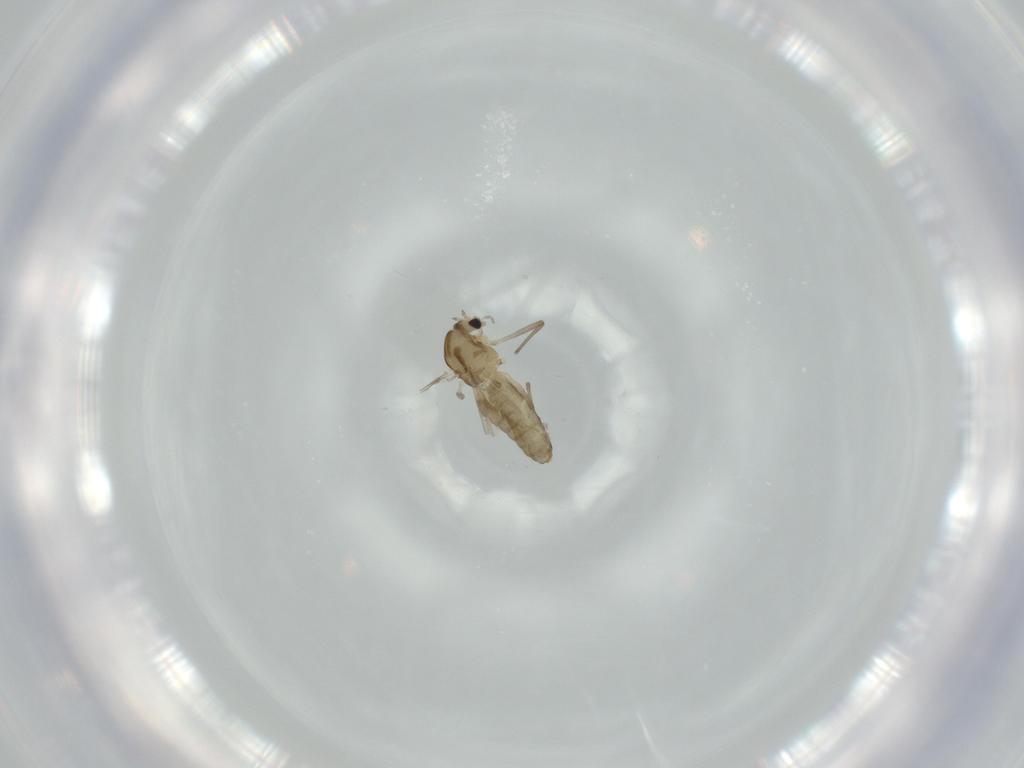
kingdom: Animalia
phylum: Arthropoda
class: Insecta
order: Diptera
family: Chironomidae
